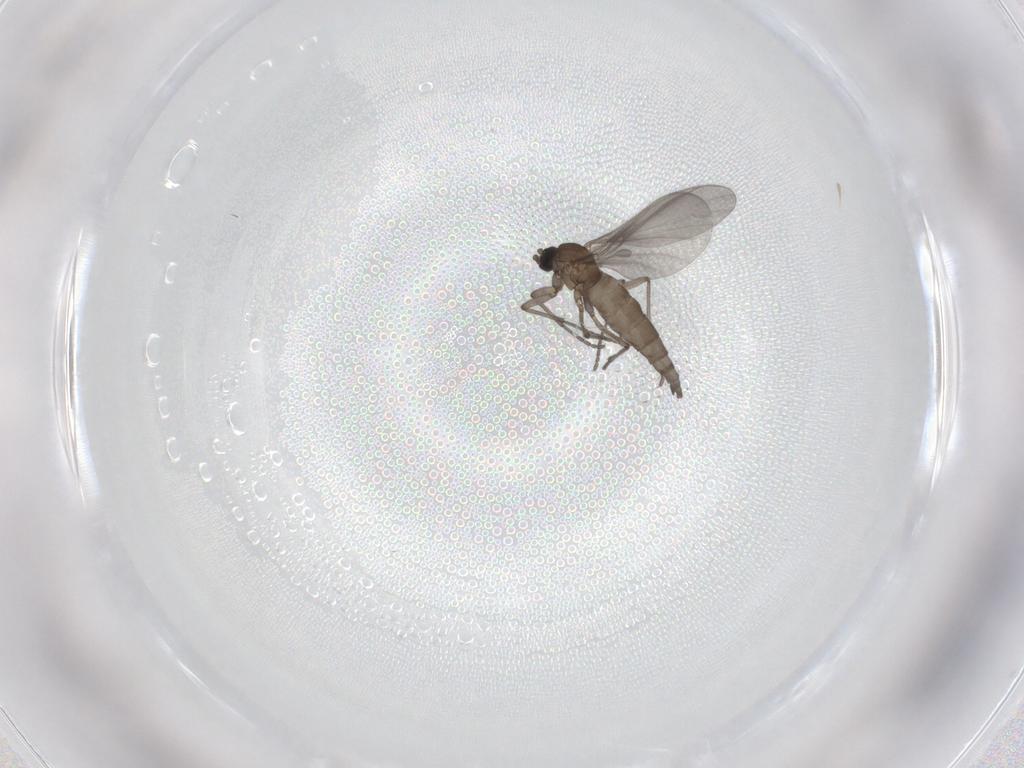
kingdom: Animalia
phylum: Arthropoda
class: Insecta
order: Diptera
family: Sciaridae
